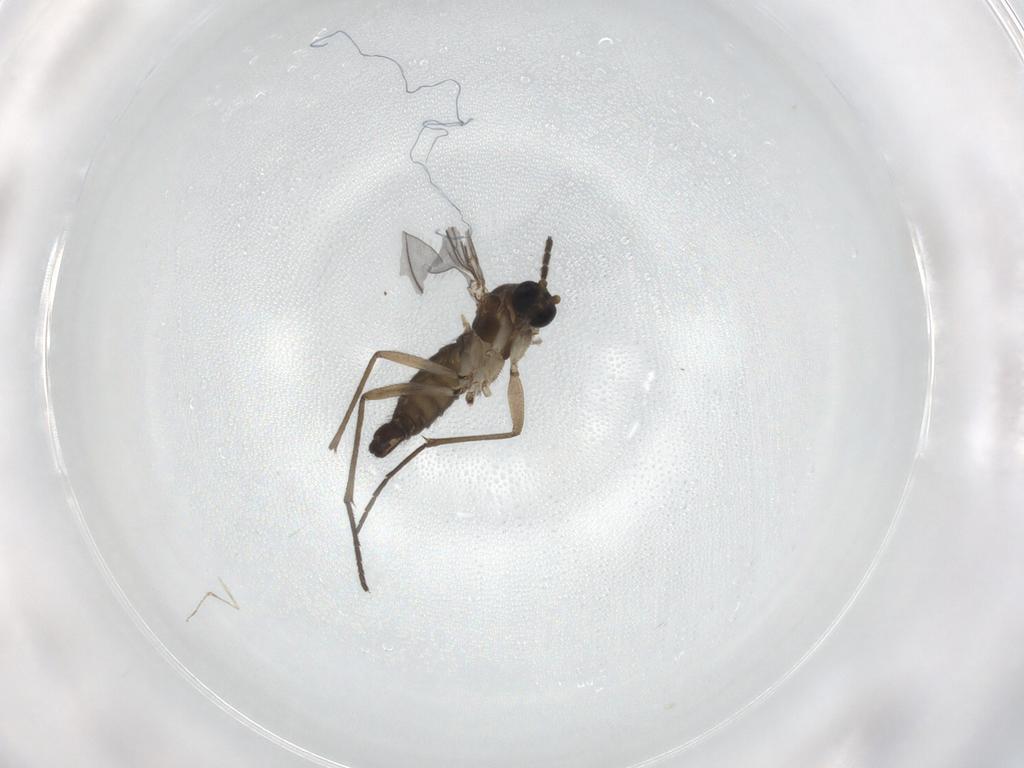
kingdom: Animalia
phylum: Arthropoda
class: Insecta
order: Diptera
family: Sciaridae
